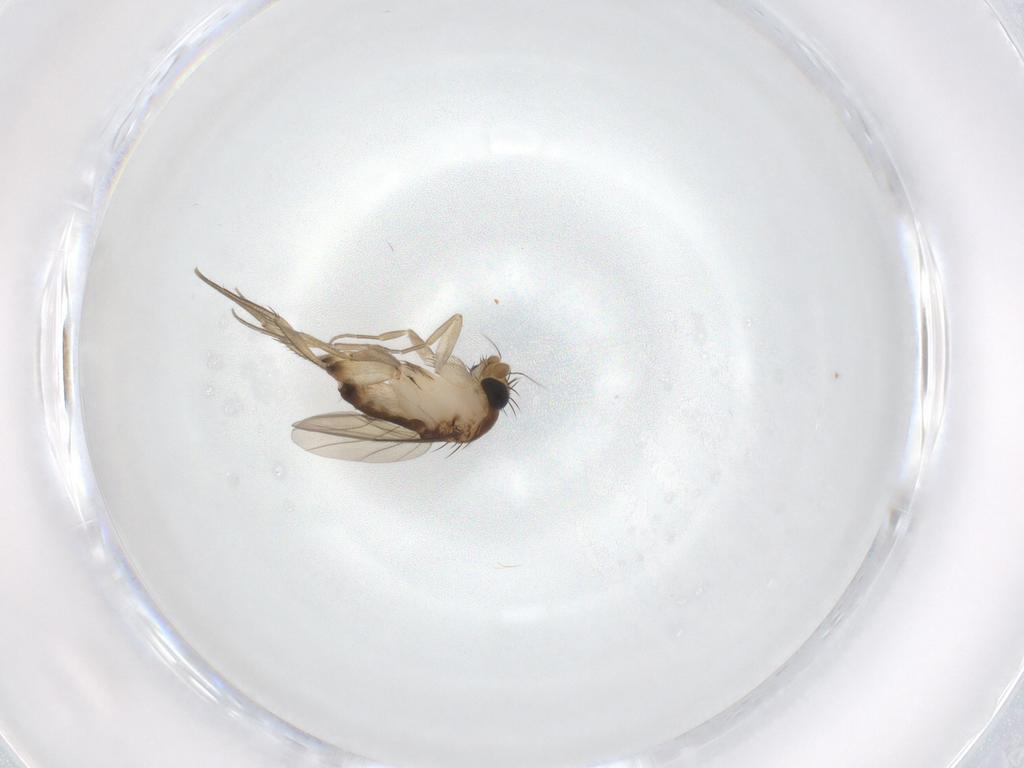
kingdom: Animalia
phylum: Arthropoda
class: Insecta
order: Diptera
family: Phoridae
